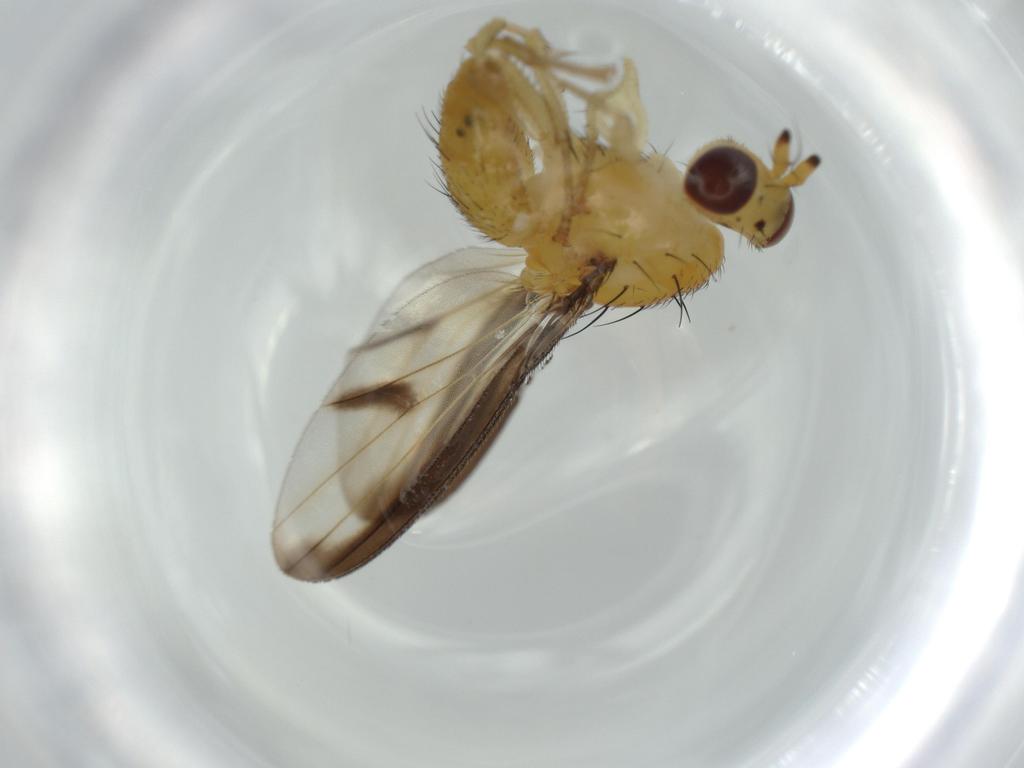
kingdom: Animalia
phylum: Arthropoda
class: Insecta
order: Diptera
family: Lauxaniidae
